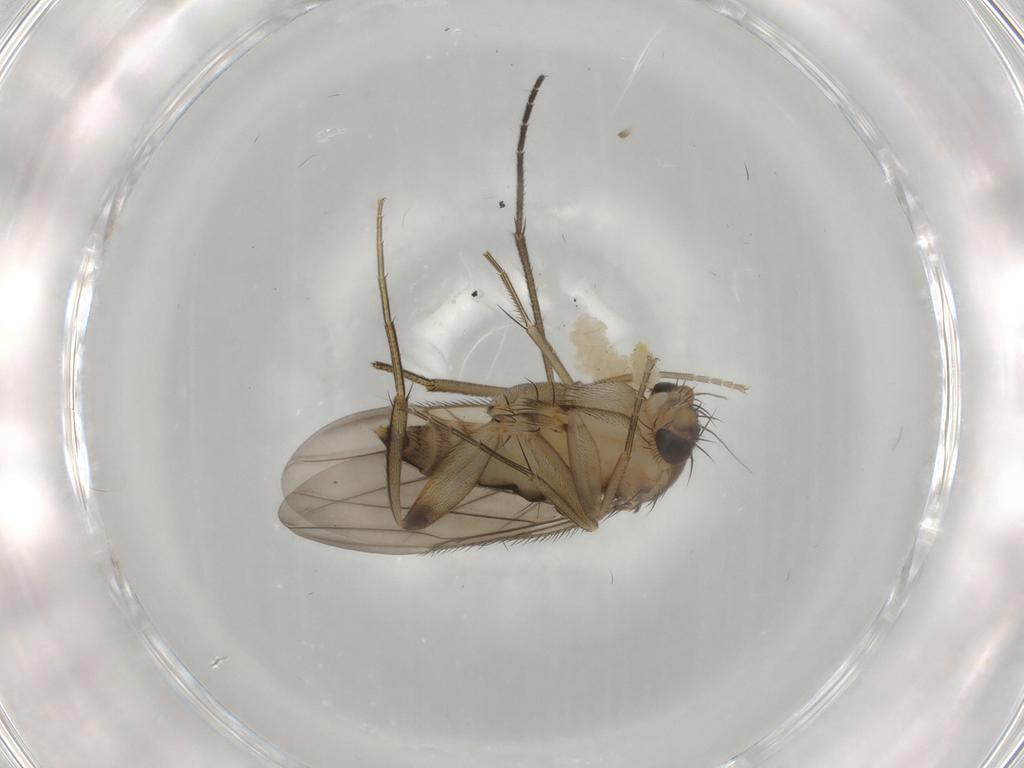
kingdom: Animalia
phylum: Arthropoda
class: Insecta
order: Diptera
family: Phoridae
